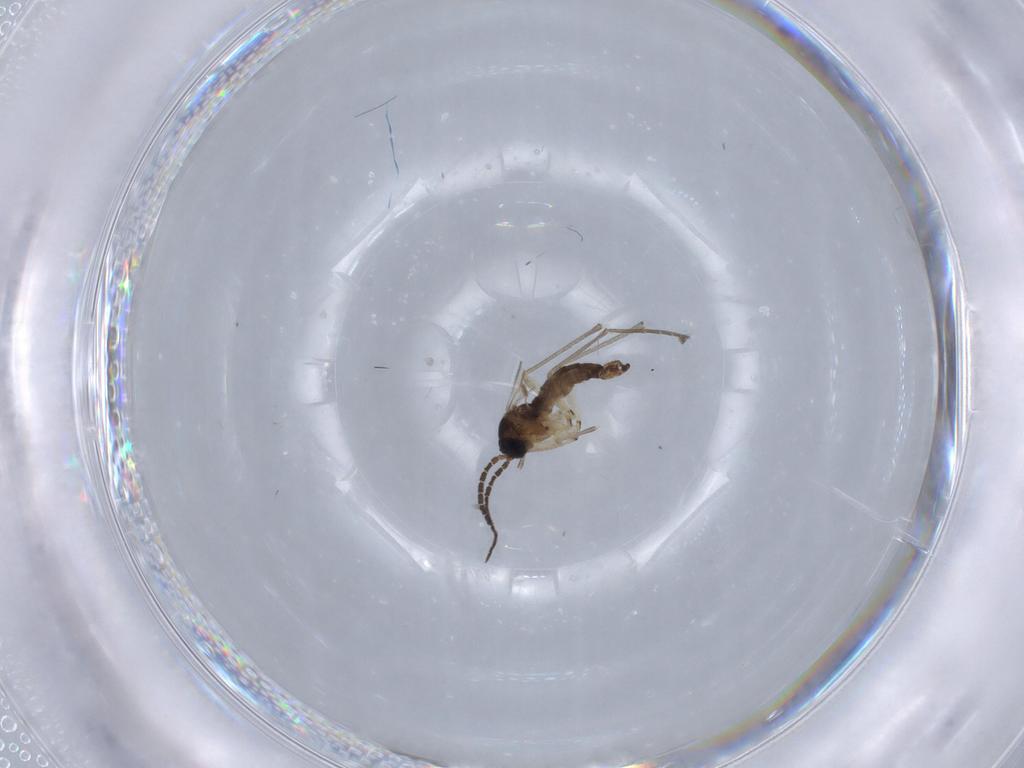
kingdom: Animalia
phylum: Arthropoda
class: Insecta
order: Diptera
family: Sciaridae
